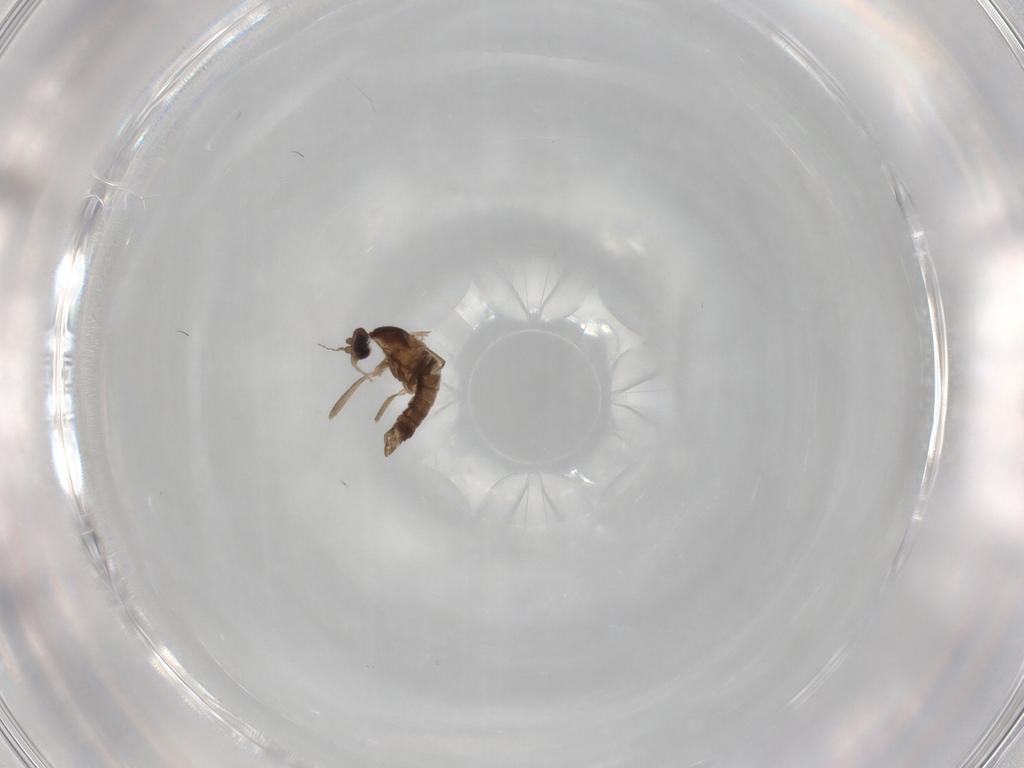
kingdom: Animalia
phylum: Arthropoda
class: Insecta
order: Diptera
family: Cecidomyiidae
